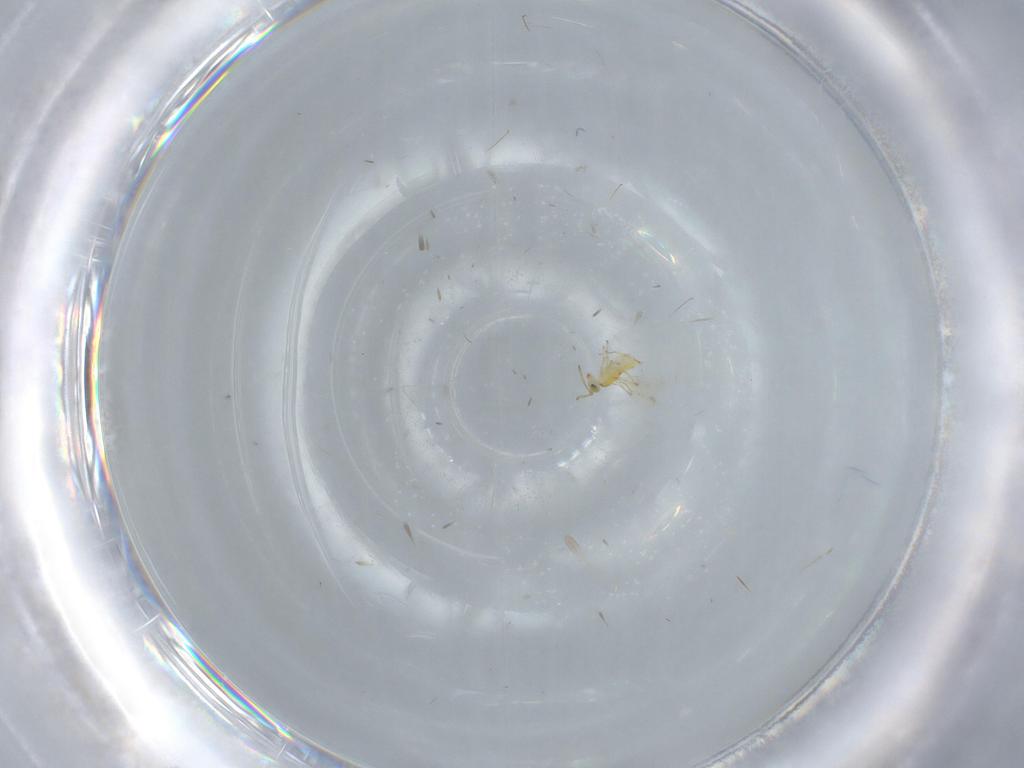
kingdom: Animalia
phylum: Arthropoda
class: Insecta
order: Hymenoptera
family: Aphelinidae
